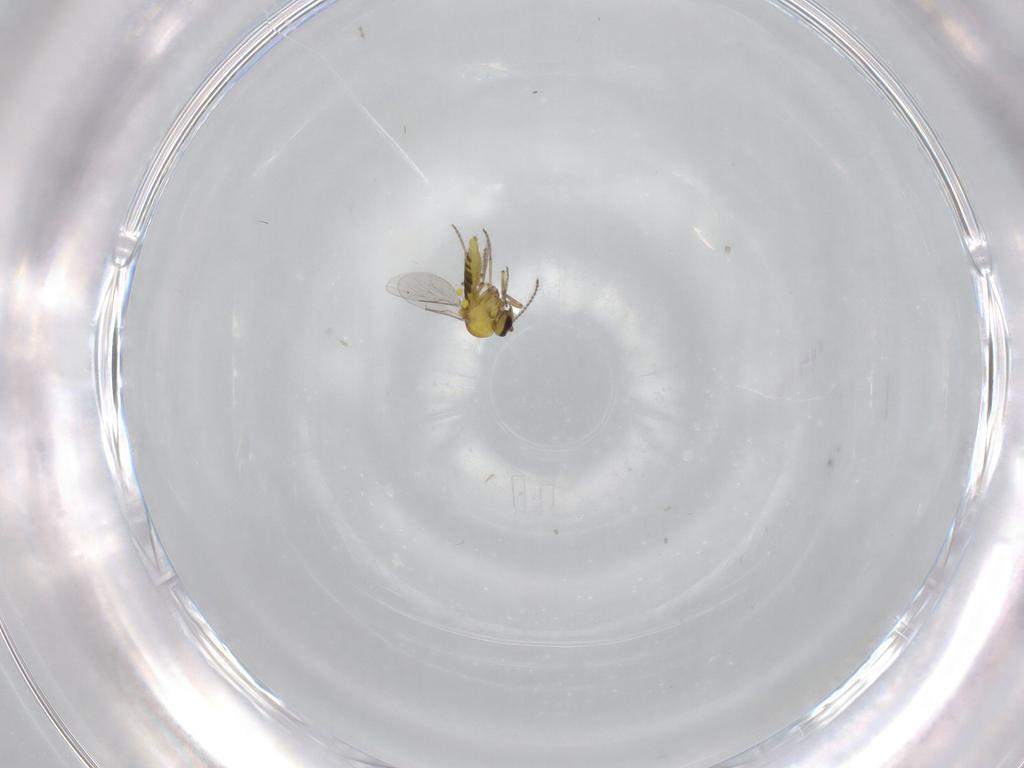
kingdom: Animalia
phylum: Arthropoda
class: Insecta
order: Diptera
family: Ceratopogonidae
